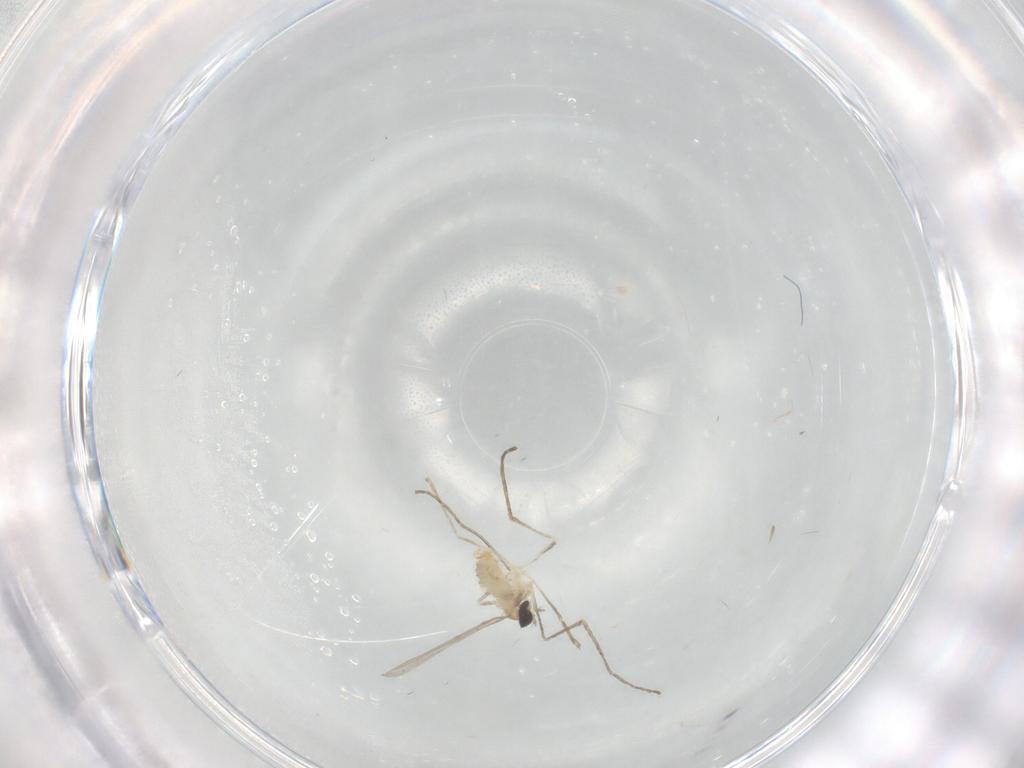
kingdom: Animalia
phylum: Arthropoda
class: Insecta
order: Diptera
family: Cecidomyiidae
